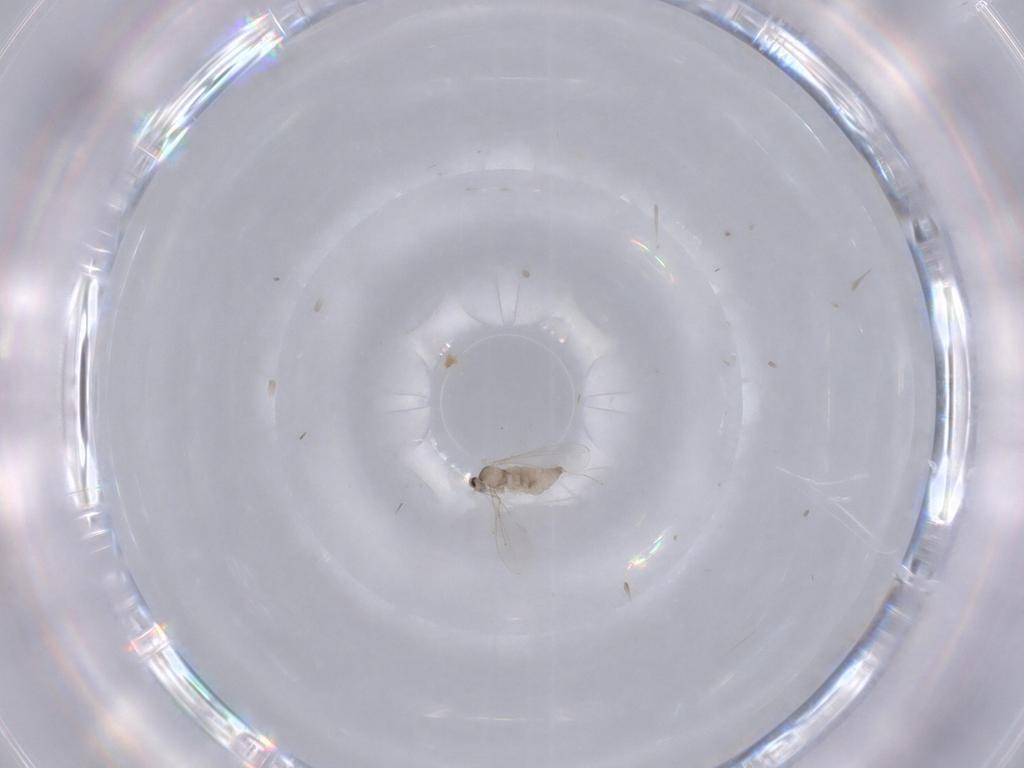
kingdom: Animalia
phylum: Arthropoda
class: Insecta
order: Diptera
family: Cecidomyiidae
